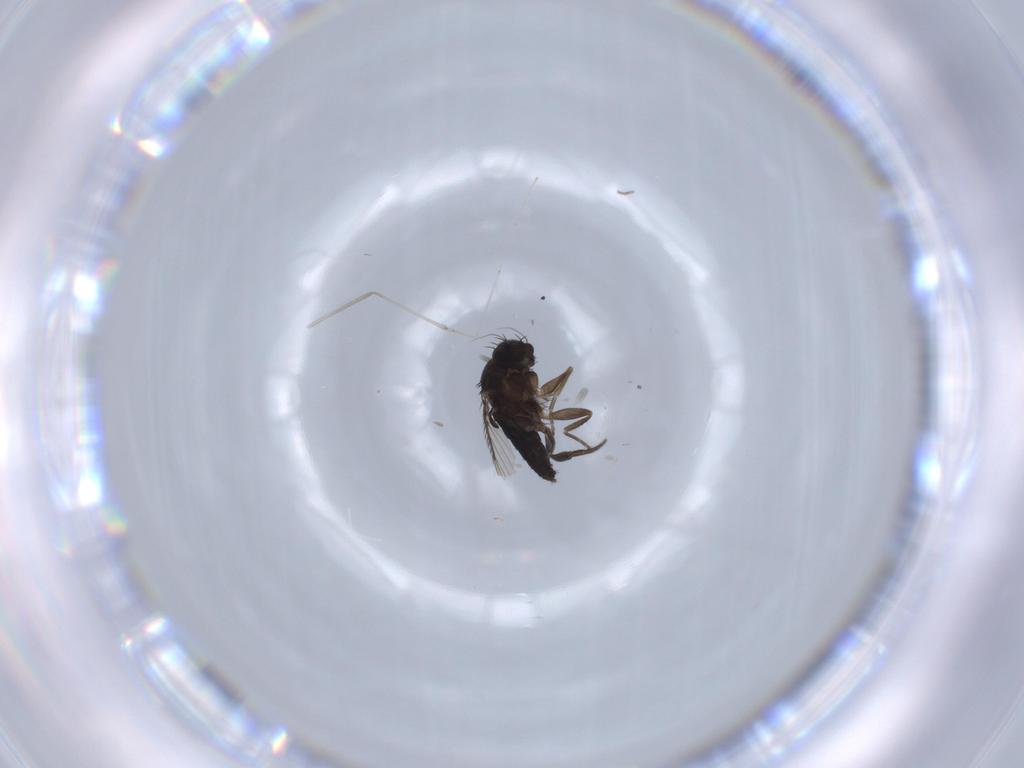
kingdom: Animalia
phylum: Arthropoda
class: Insecta
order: Diptera
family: Phoridae
